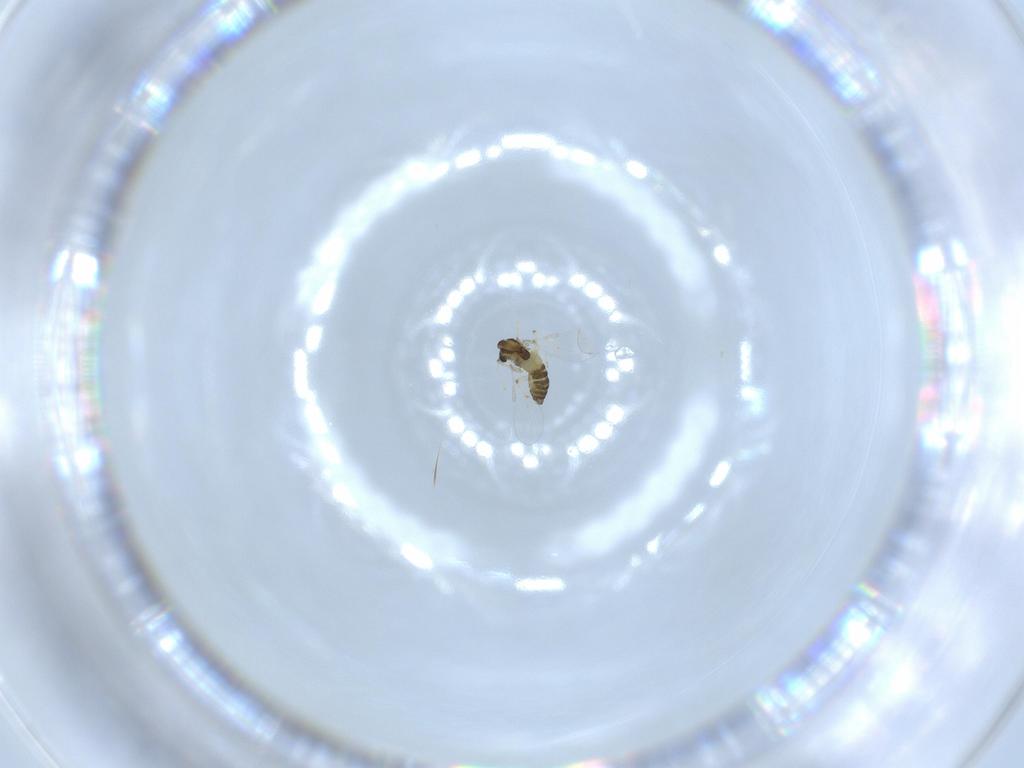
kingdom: Animalia
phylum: Arthropoda
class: Insecta
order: Diptera
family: Chironomidae
